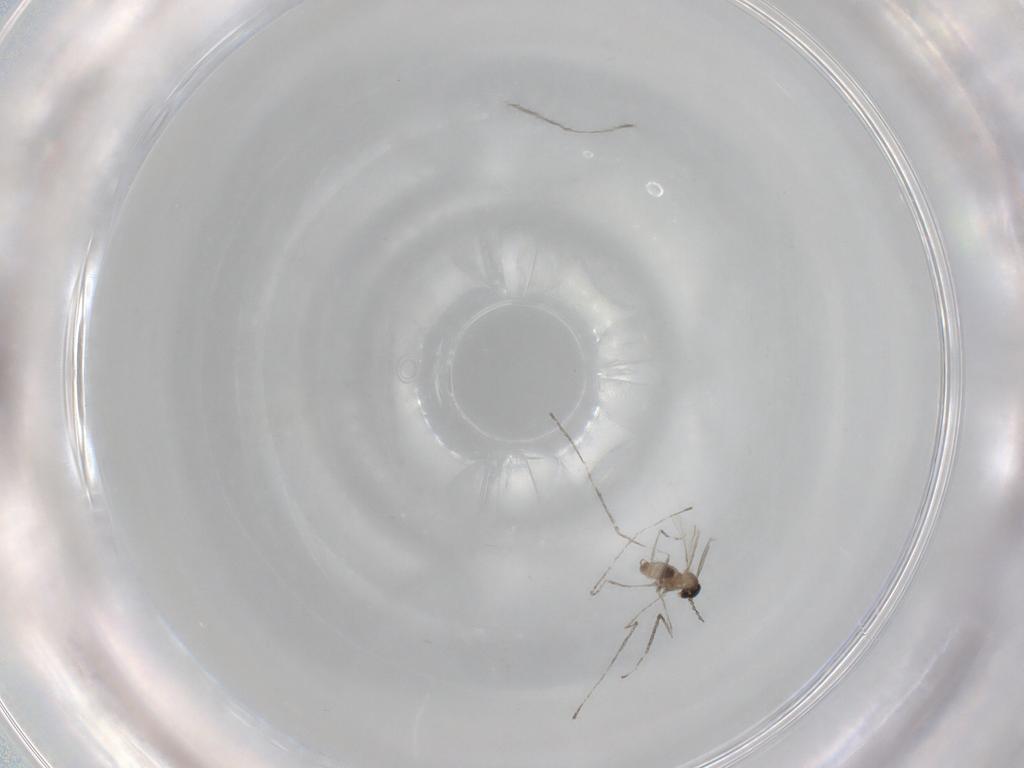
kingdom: Animalia
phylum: Arthropoda
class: Insecta
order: Diptera
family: Cecidomyiidae
